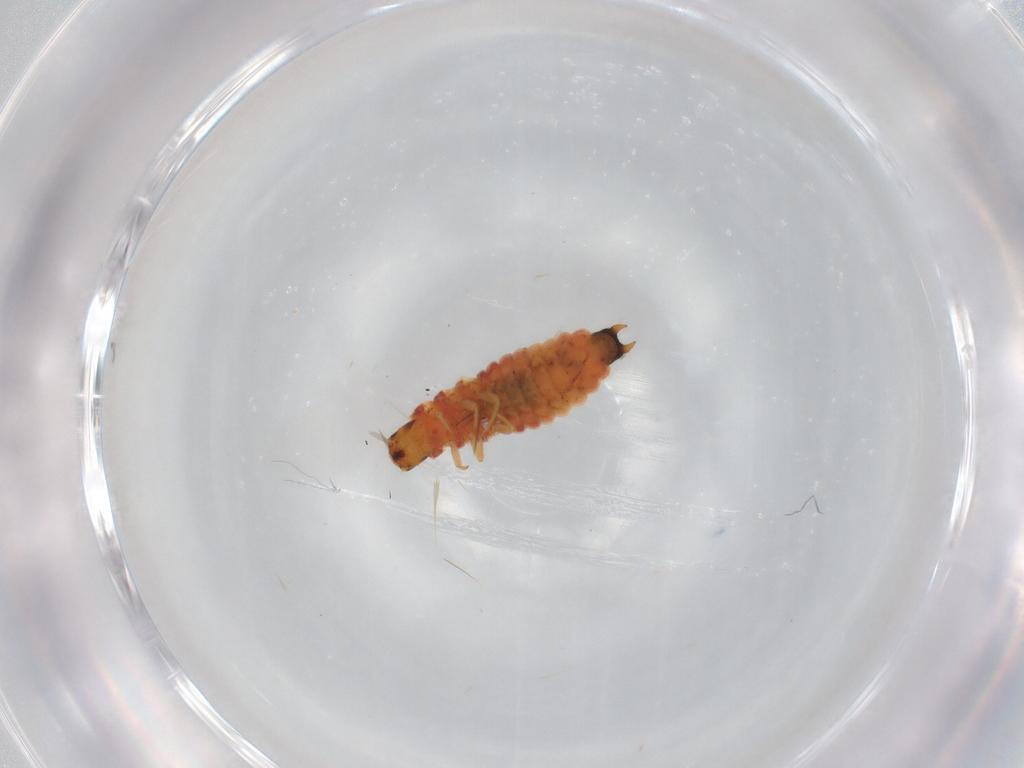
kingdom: Animalia
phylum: Arthropoda
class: Insecta
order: Coleoptera
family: Melyridae
